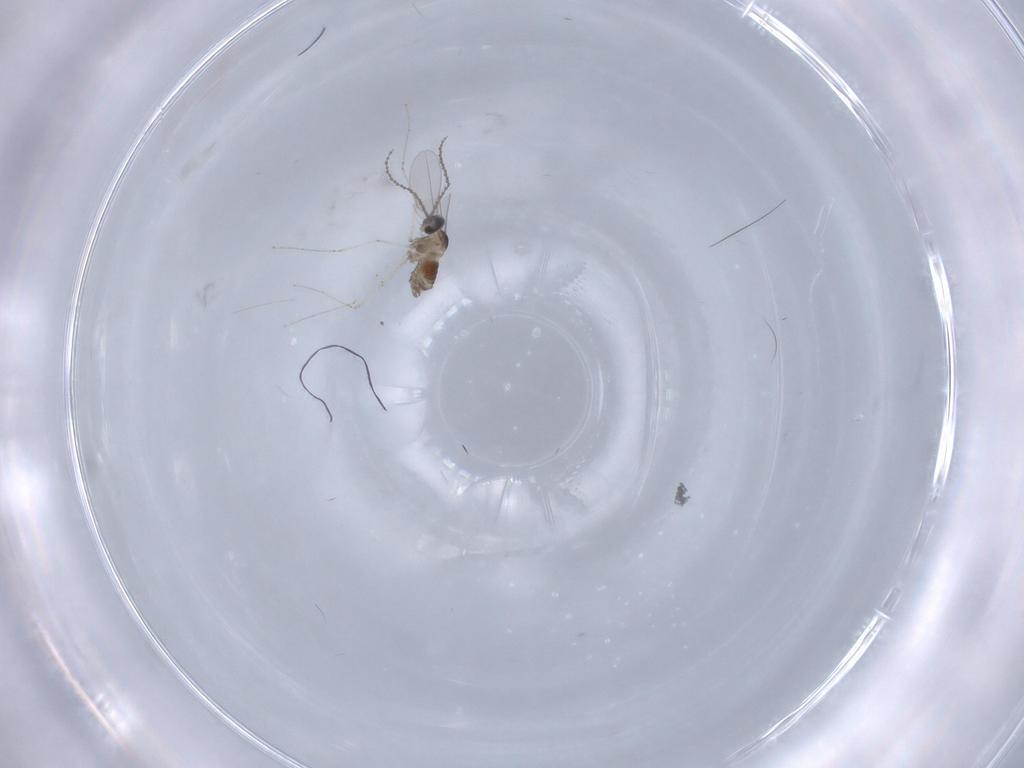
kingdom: Animalia
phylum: Arthropoda
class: Insecta
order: Diptera
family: Cecidomyiidae
